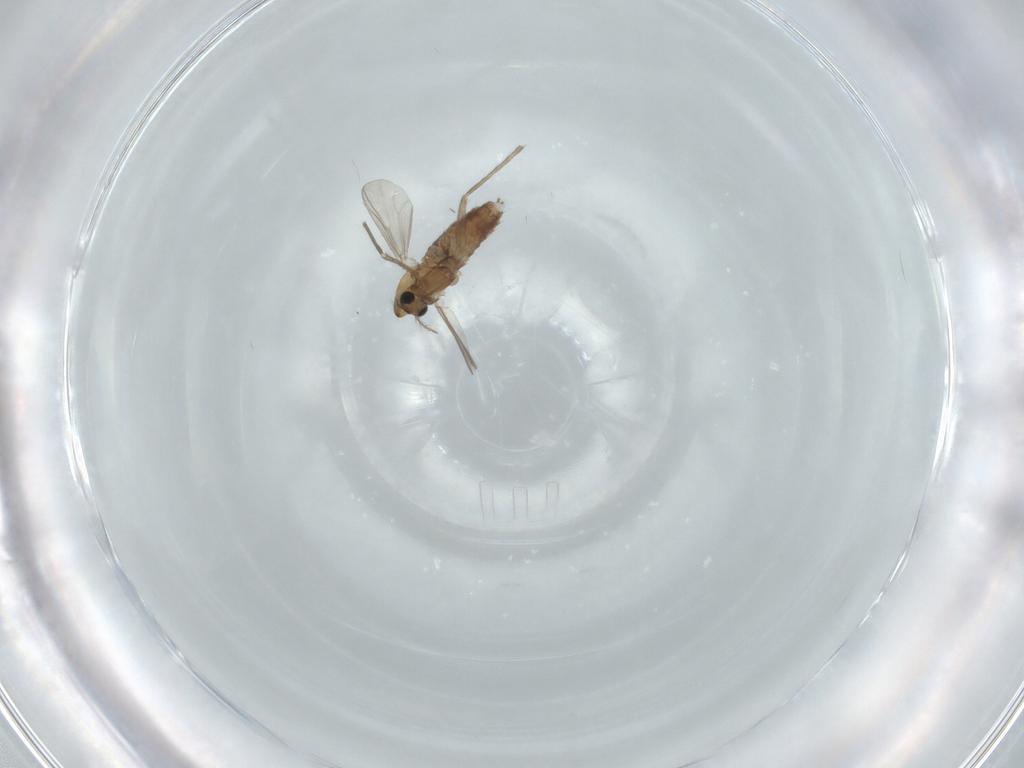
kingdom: Animalia
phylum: Arthropoda
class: Insecta
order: Diptera
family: Chironomidae
